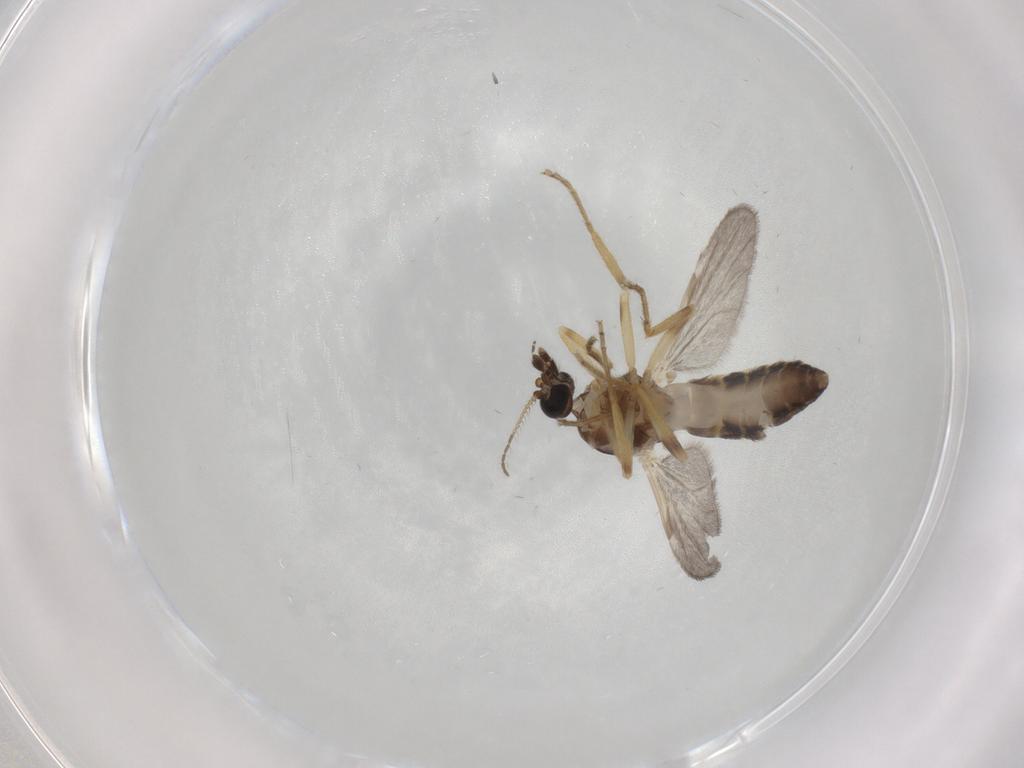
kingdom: Animalia
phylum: Arthropoda
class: Insecta
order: Diptera
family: Ceratopogonidae
